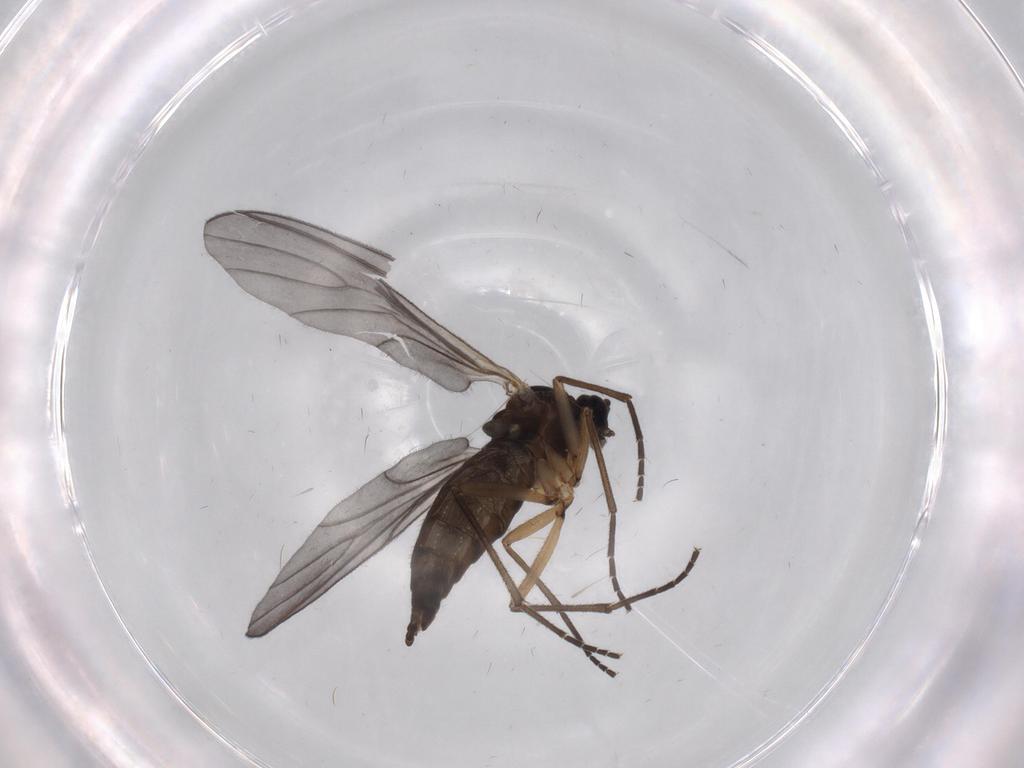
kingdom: Animalia
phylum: Arthropoda
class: Insecta
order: Diptera
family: Sciaridae
